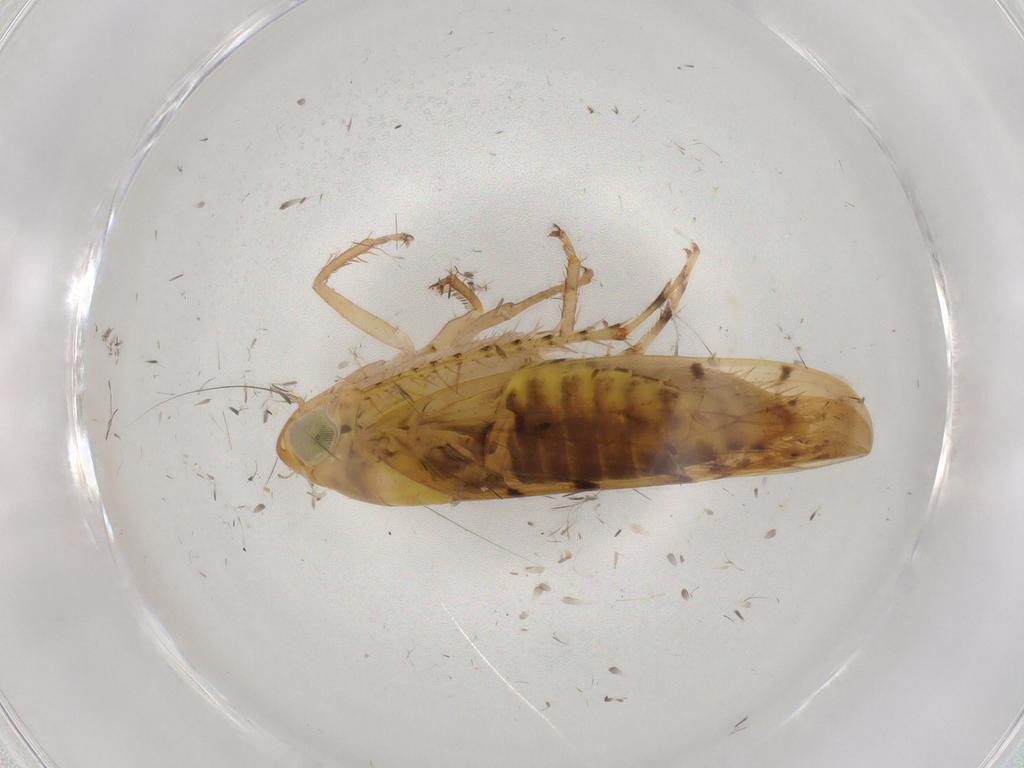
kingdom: Animalia
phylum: Arthropoda
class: Insecta
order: Hemiptera
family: Cicadellidae
